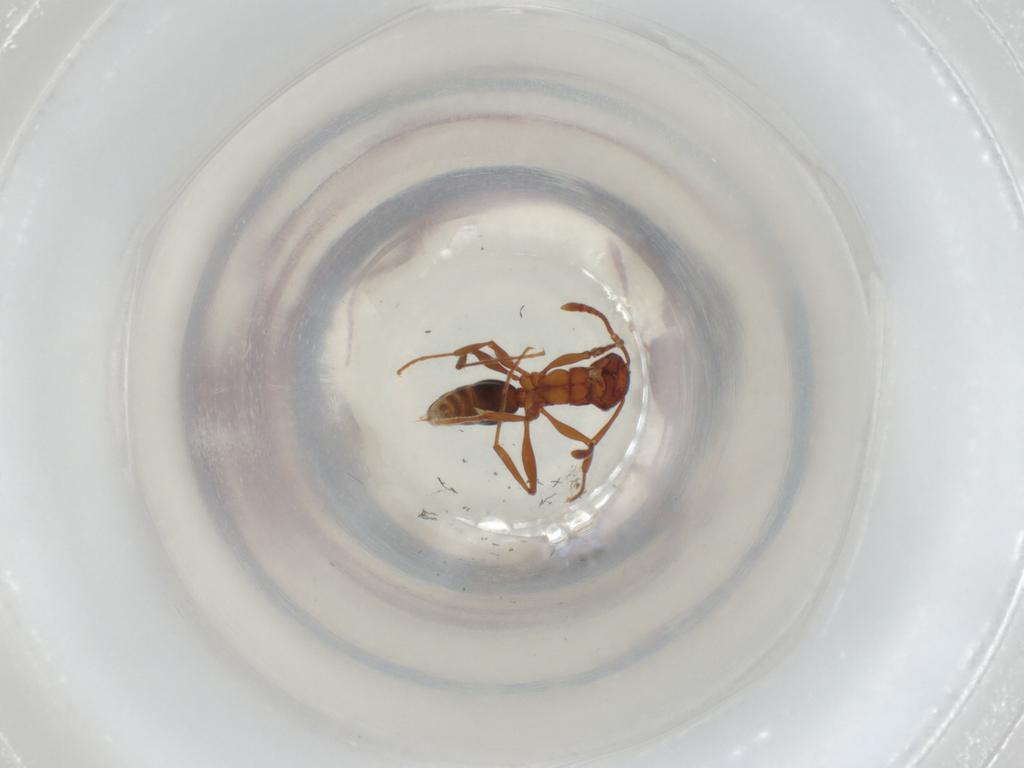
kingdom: Animalia
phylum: Arthropoda
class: Insecta
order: Hymenoptera
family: Formicidae
